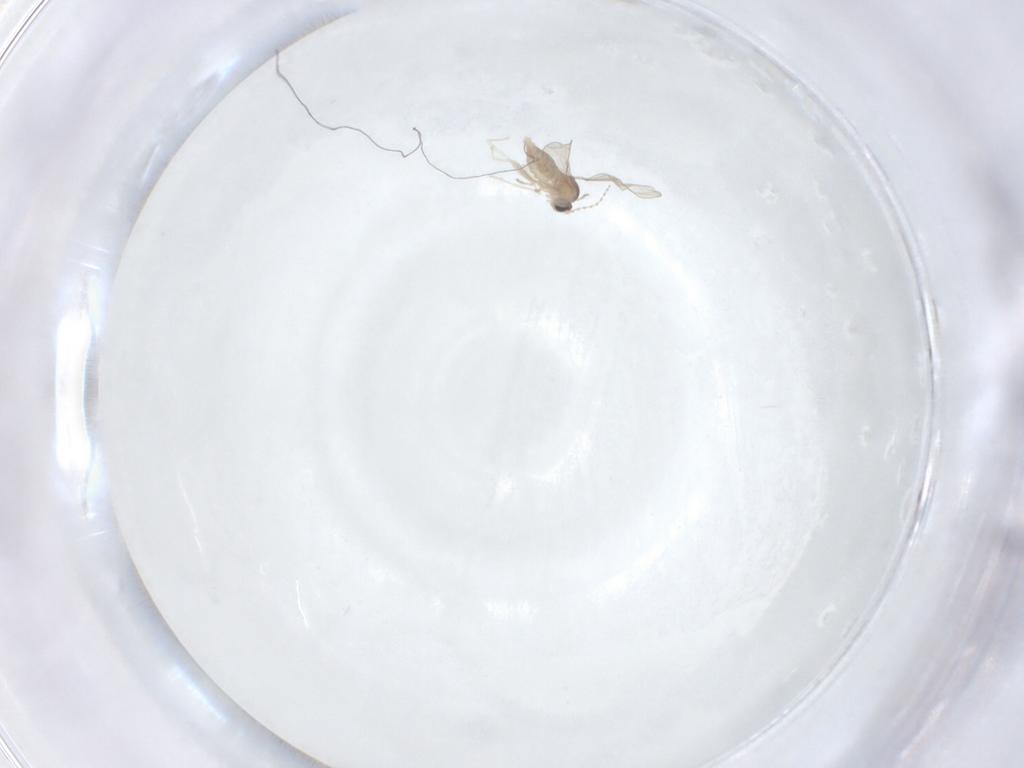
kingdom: Animalia
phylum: Arthropoda
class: Insecta
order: Diptera
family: Cecidomyiidae
